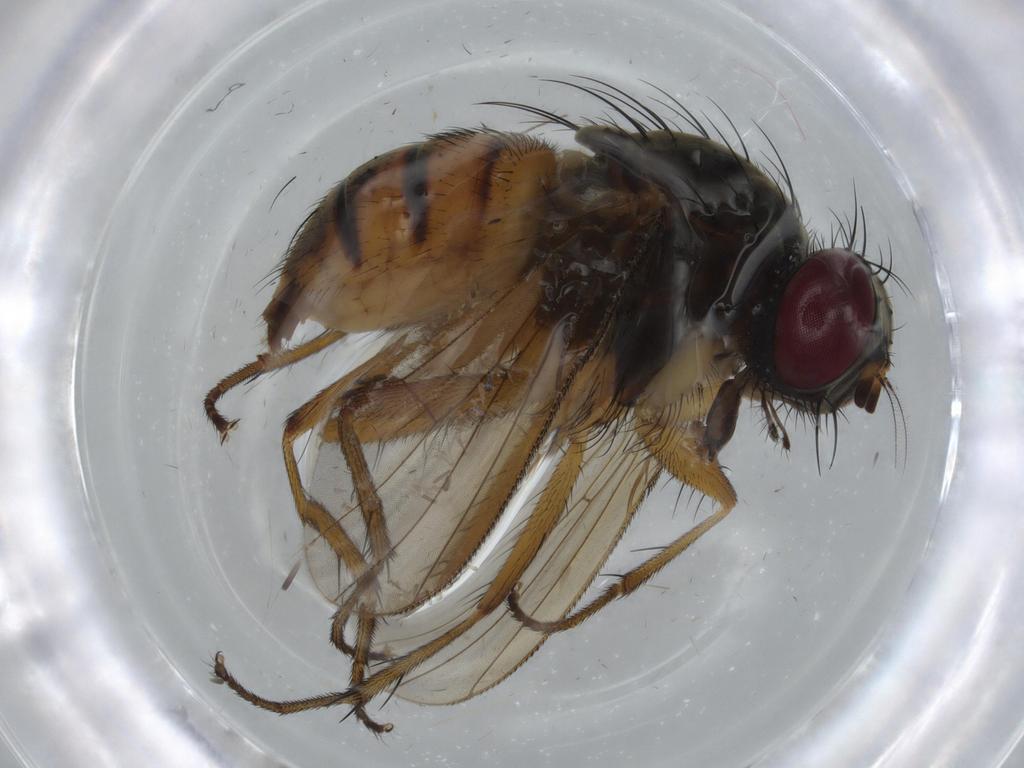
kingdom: Animalia
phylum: Arthropoda
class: Insecta
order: Diptera
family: Muscidae
